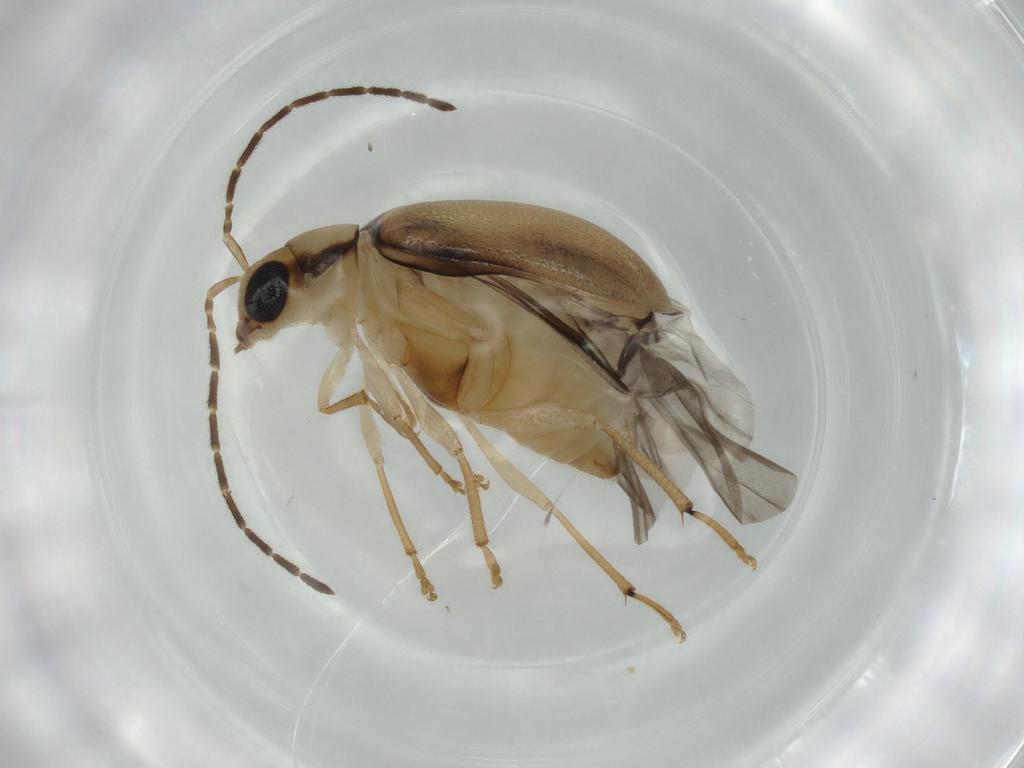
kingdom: Animalia
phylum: Arthropoda
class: Insecta
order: Coleoptera
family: Chrysomelidae
